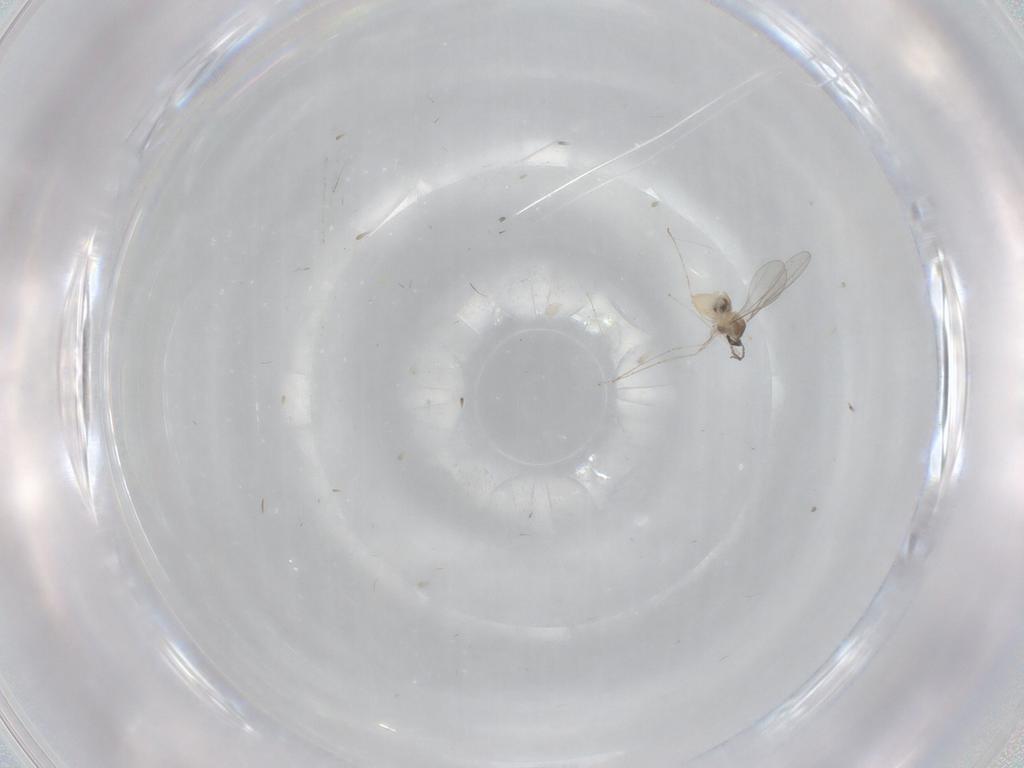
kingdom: Animalia
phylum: Arthropoda
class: Insecta
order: Diptera
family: Cecidomyiidae
